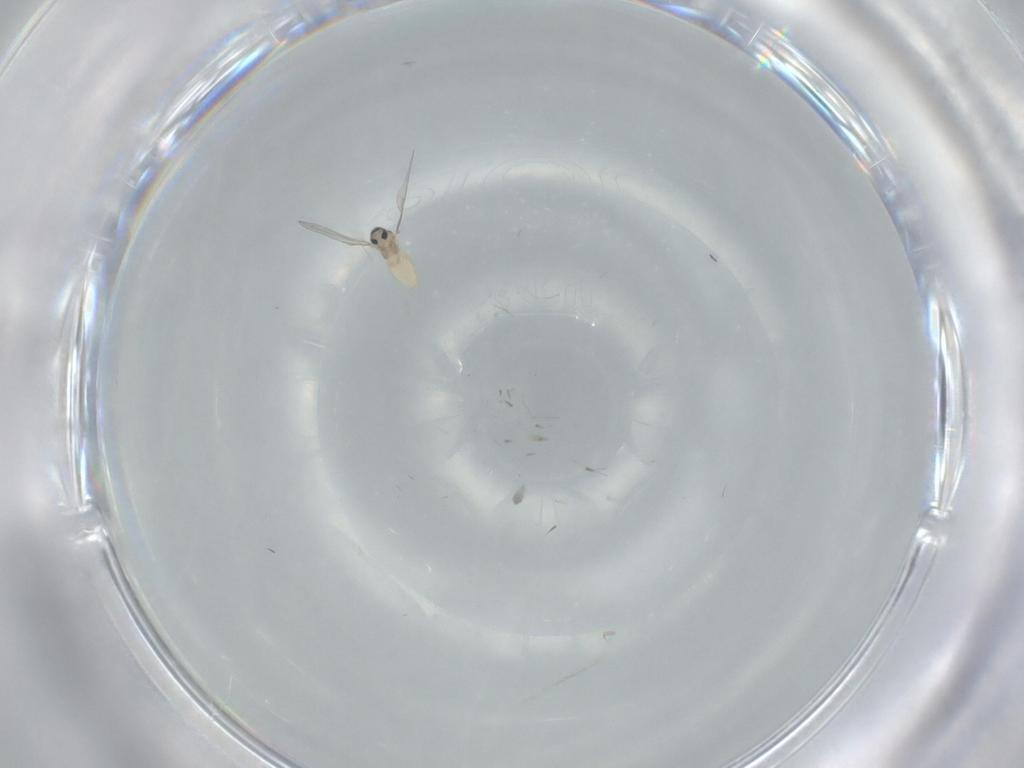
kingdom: Animalia
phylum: Arthropoda
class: Insecta
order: Diptera
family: Cecidomyiidae
